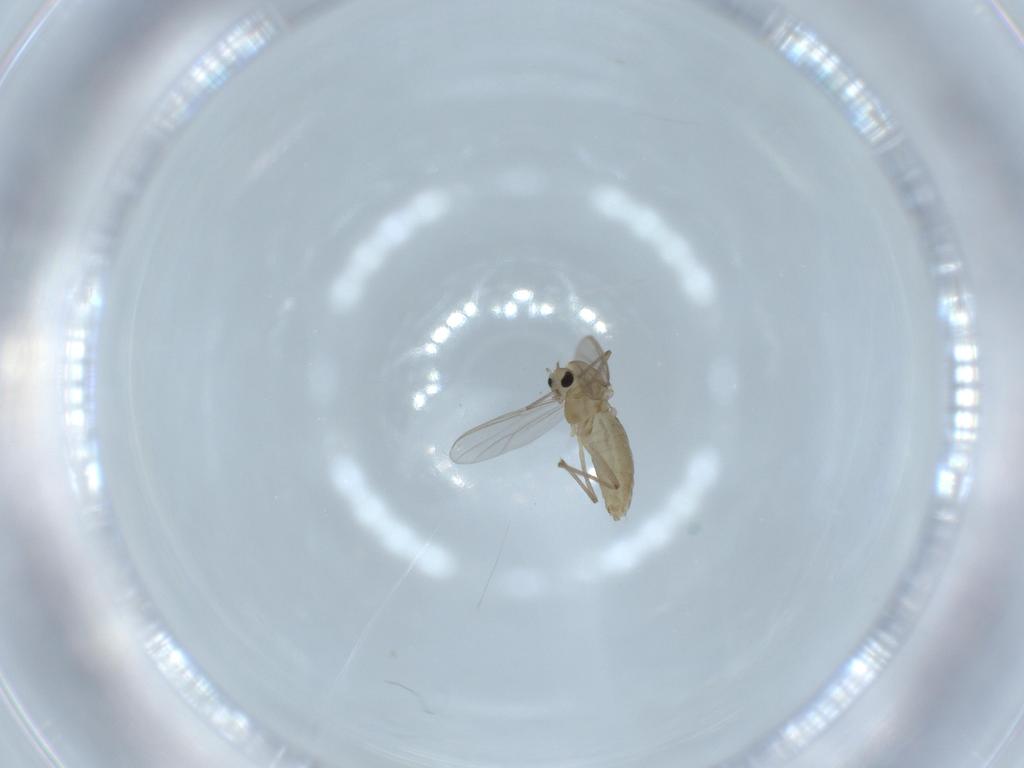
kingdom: Animalia
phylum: Arthropoda
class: Insecta
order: Diptera
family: Chironomidae
